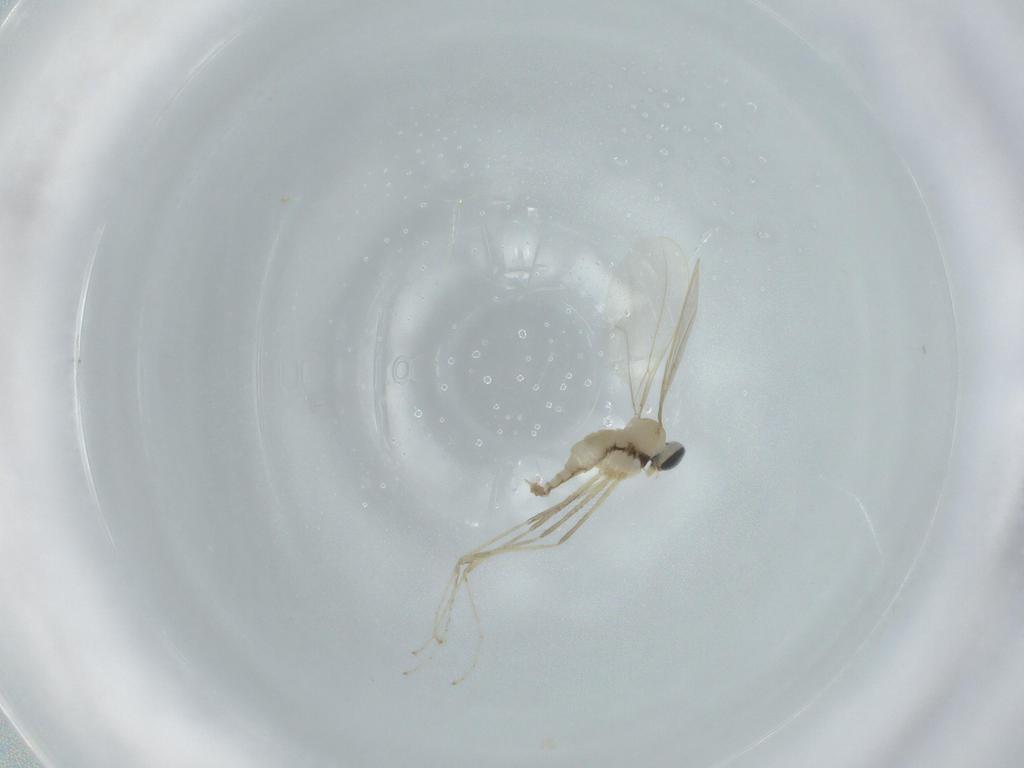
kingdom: Animalia
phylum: Arthropoda
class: Insecta
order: Diptera
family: Cecidomyiidae
